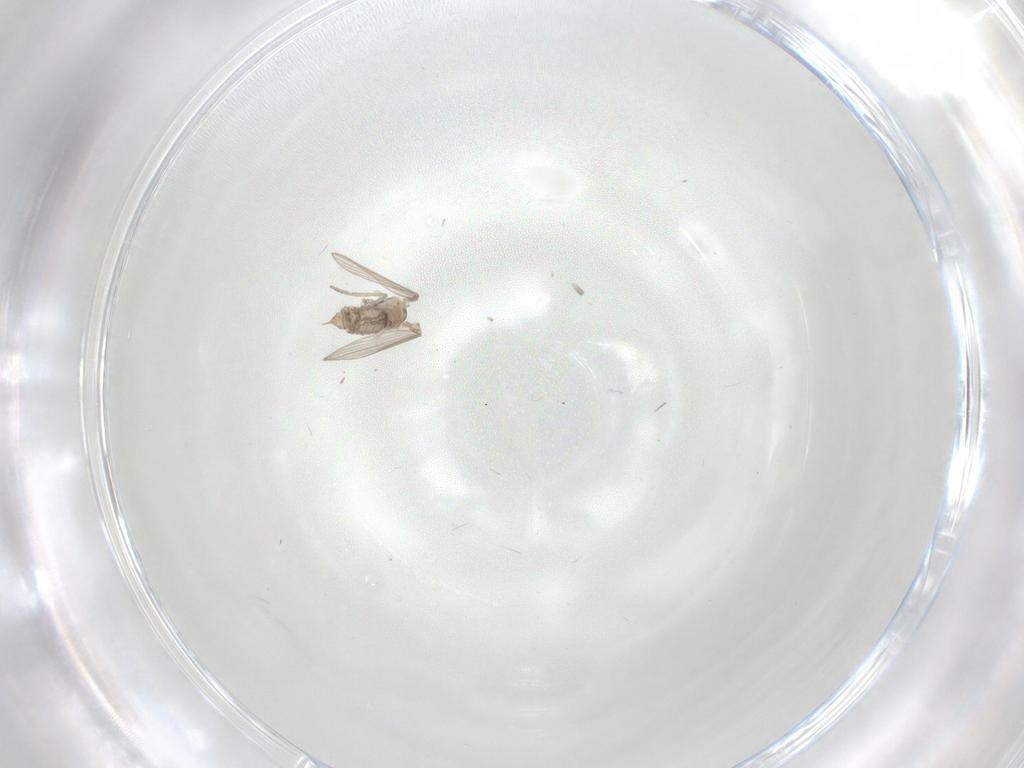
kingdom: Animalia
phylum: Arthropoda
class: Insecta
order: Diptera
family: Psychodidae
